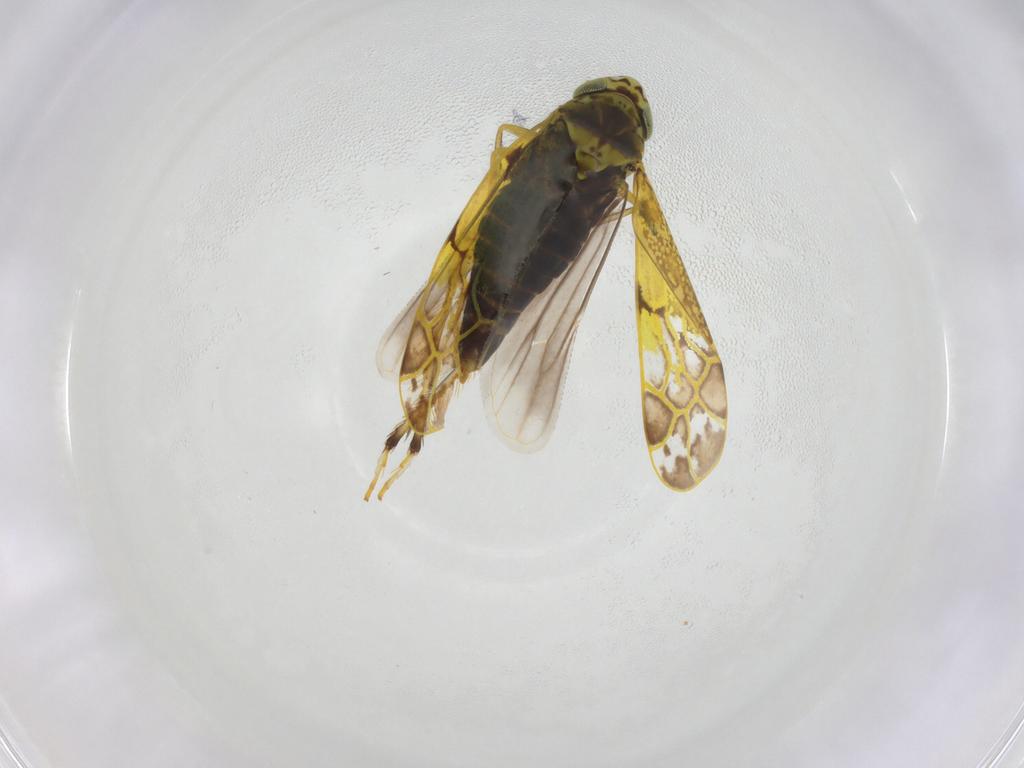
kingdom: Animalia
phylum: Arthropoda
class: Insecta
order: Hemiptera
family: Cicadellidae
